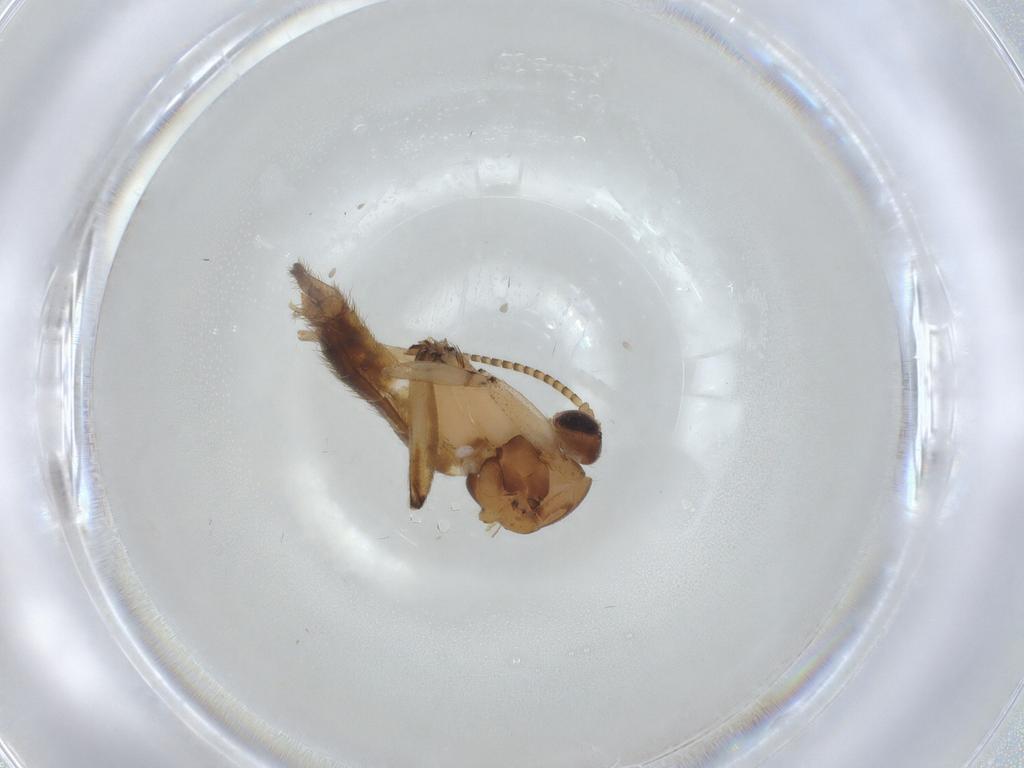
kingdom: Animalia
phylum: Arthropoda
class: Insecta
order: Diptera
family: Mycetophilidae
